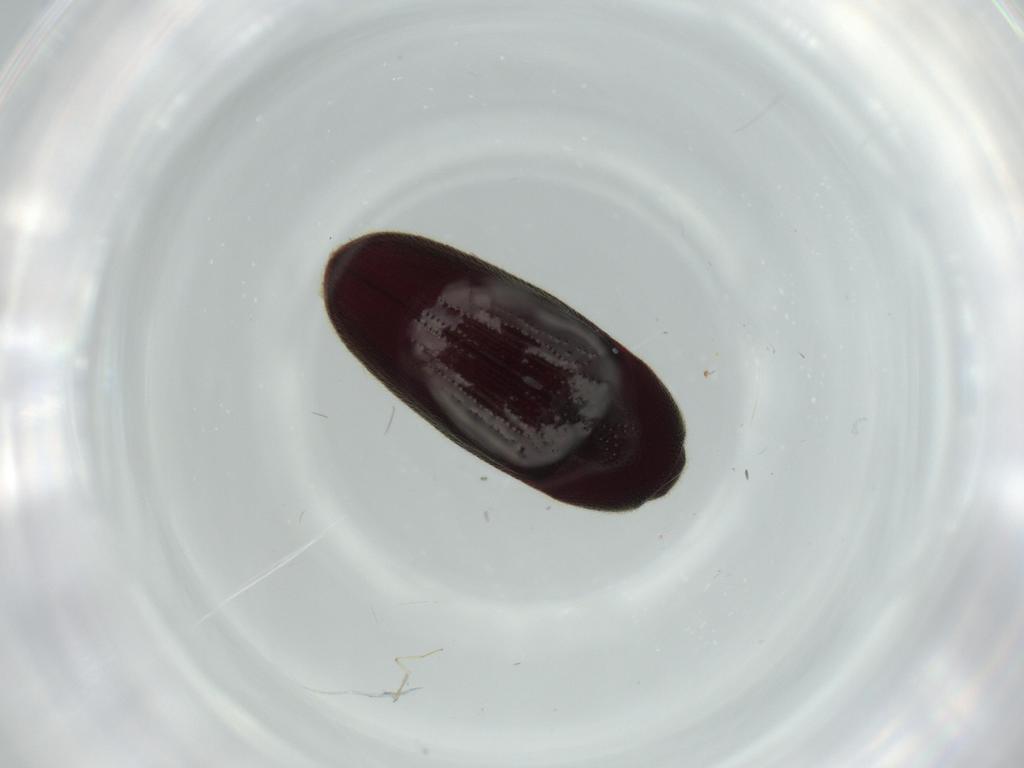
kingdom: Animalia
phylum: Arthropoda
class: Insecta
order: Coleoptera
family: Throscidae
